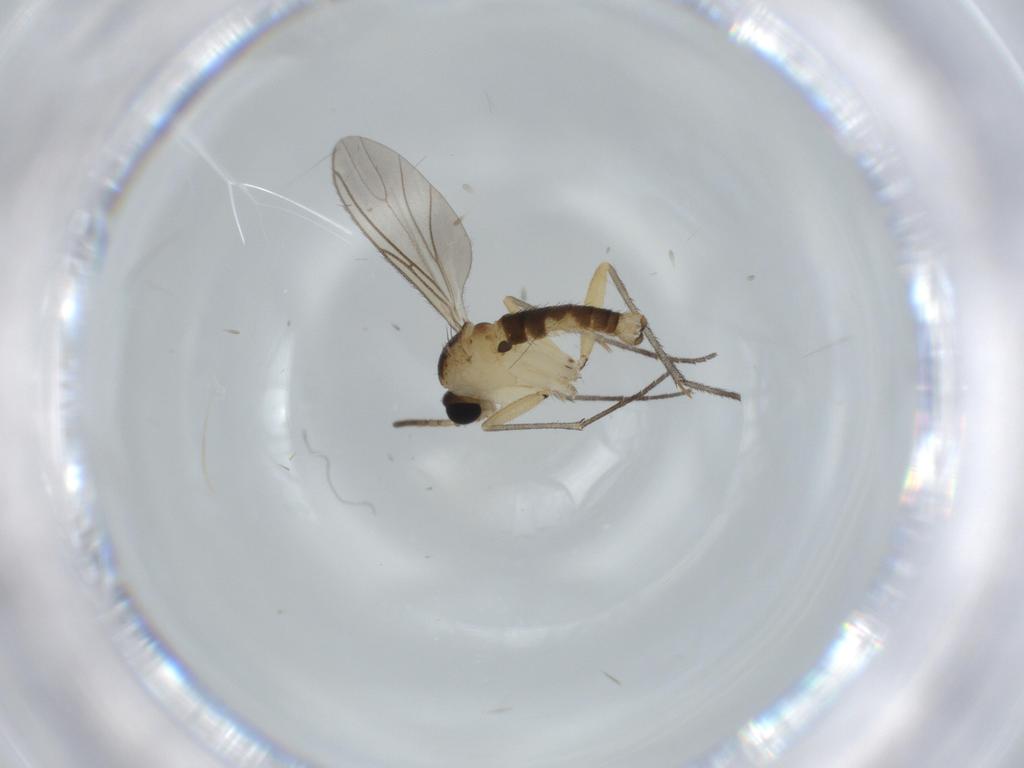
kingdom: Animalia
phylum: Arthropoda
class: Insecta
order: Diptera
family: Sciaridae
